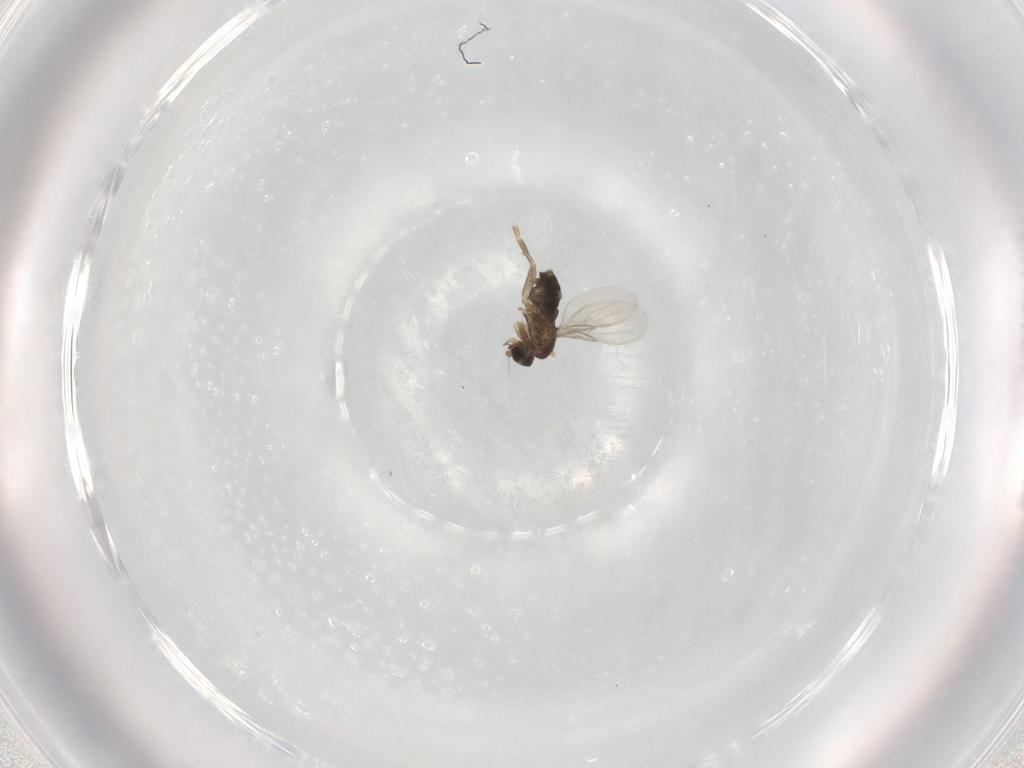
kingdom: Animalia
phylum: Arthropoda
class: Insecta
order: Diptera
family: Phoridae
